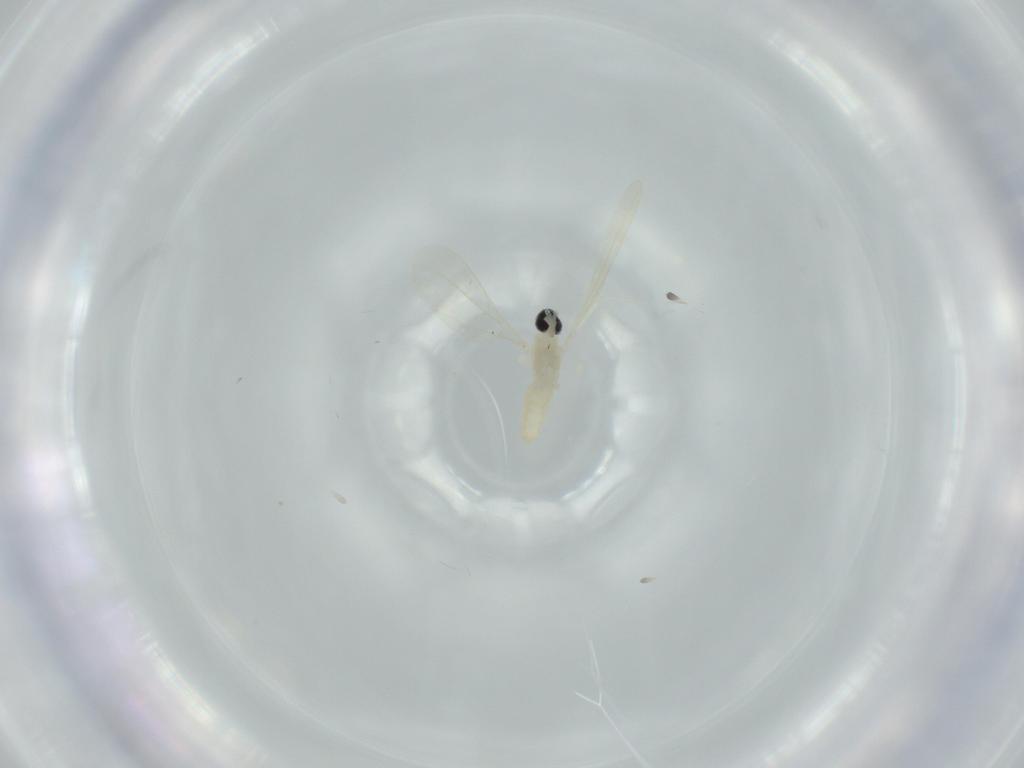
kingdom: Animalia
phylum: Arthropoda
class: Insecta
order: Diptera
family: Cecidomyiidae
